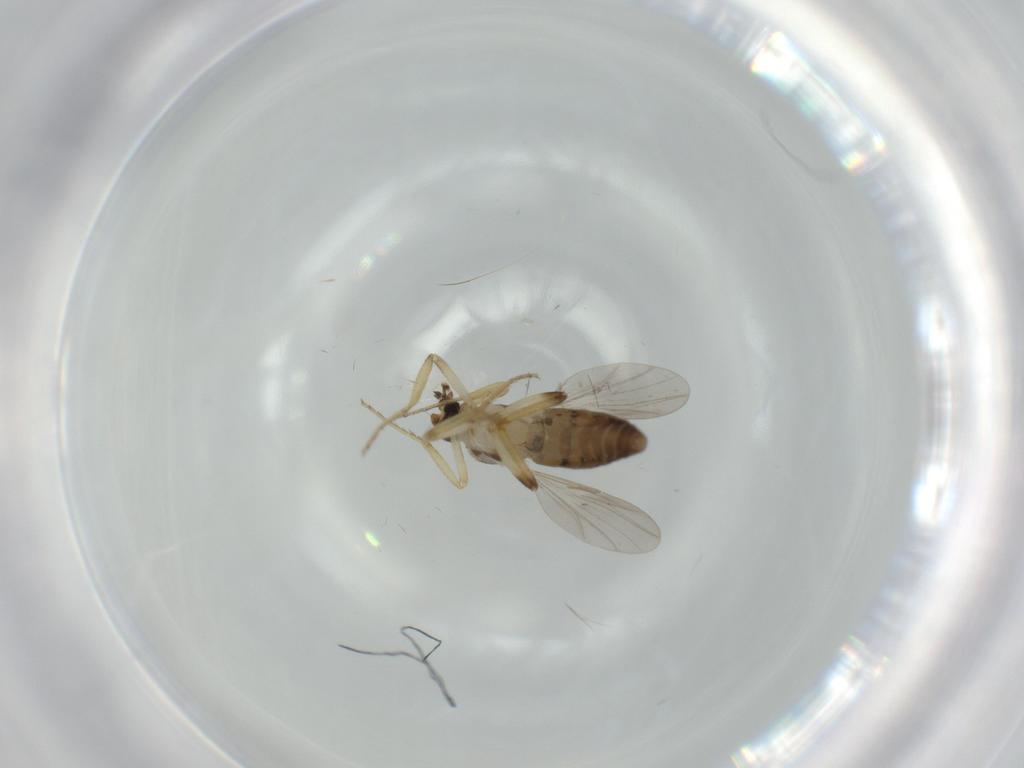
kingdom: Animalia
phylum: Arthropoda
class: Insecta
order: Diptera
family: Ceratopogonidae
